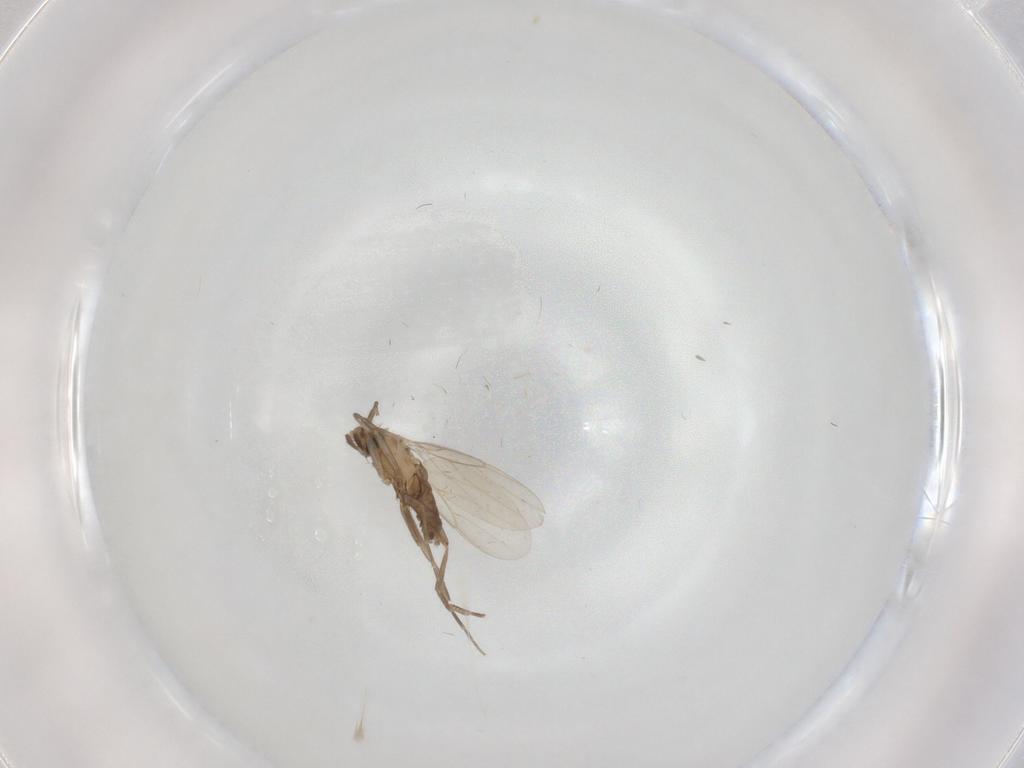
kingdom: Animalia
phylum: Arthropoda
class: Insecta
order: Diptera
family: Phoridae
